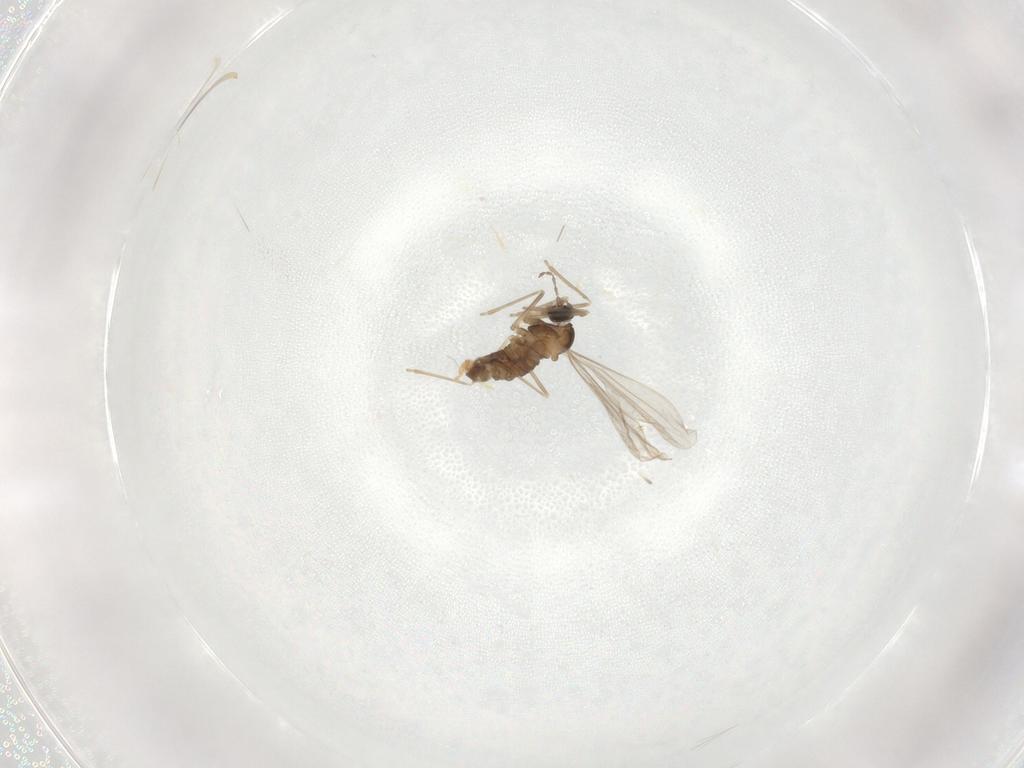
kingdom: Animalia
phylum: Arthropoda
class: Insecta
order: Diptera
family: Cecidomyiidae
